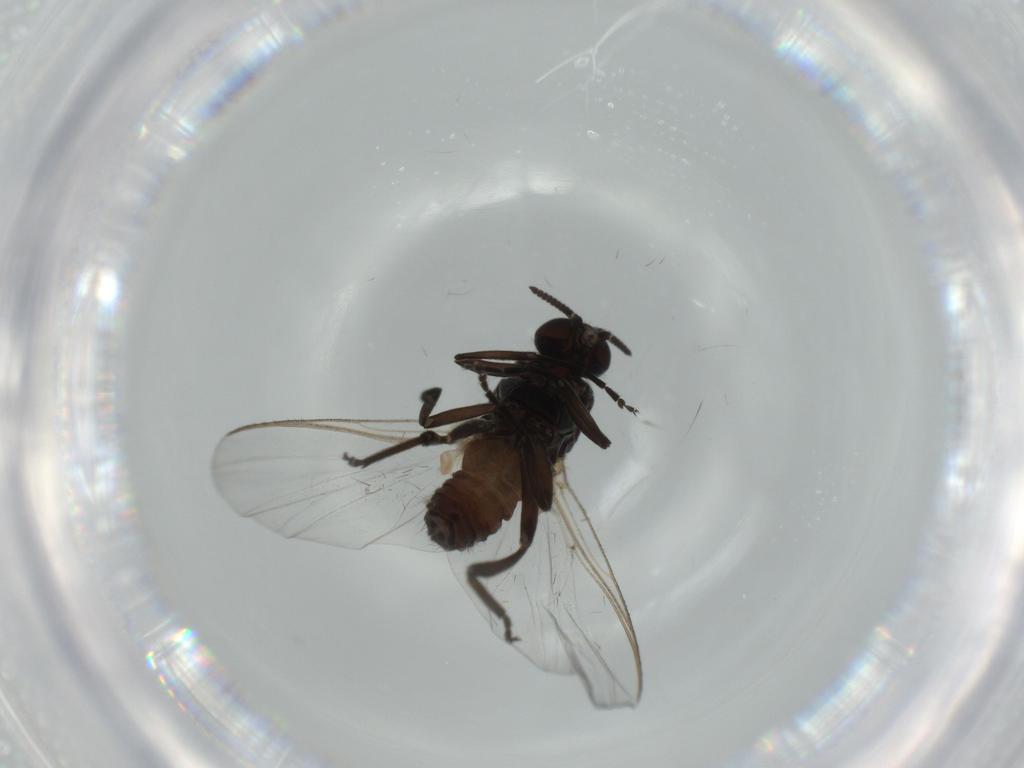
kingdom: Animalia
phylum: Arthropoda
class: Insecta
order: Diptera
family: Chironomidae
